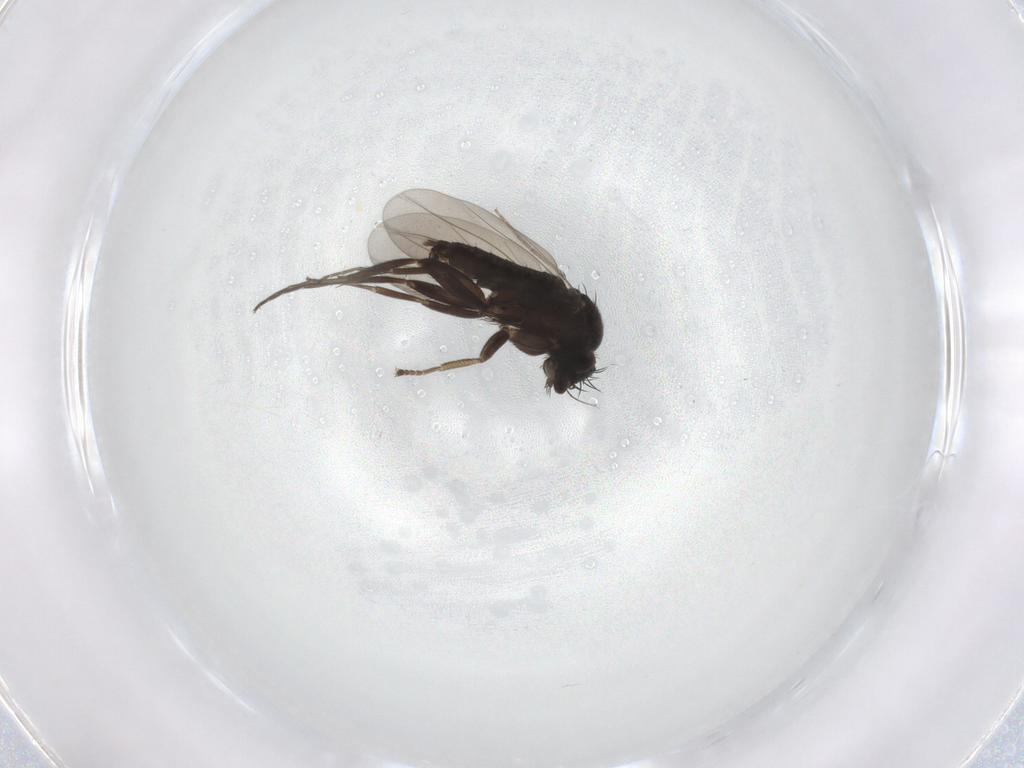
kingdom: Animalia
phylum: Arthropoda
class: Insecta
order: Diptera
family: Phoridae
